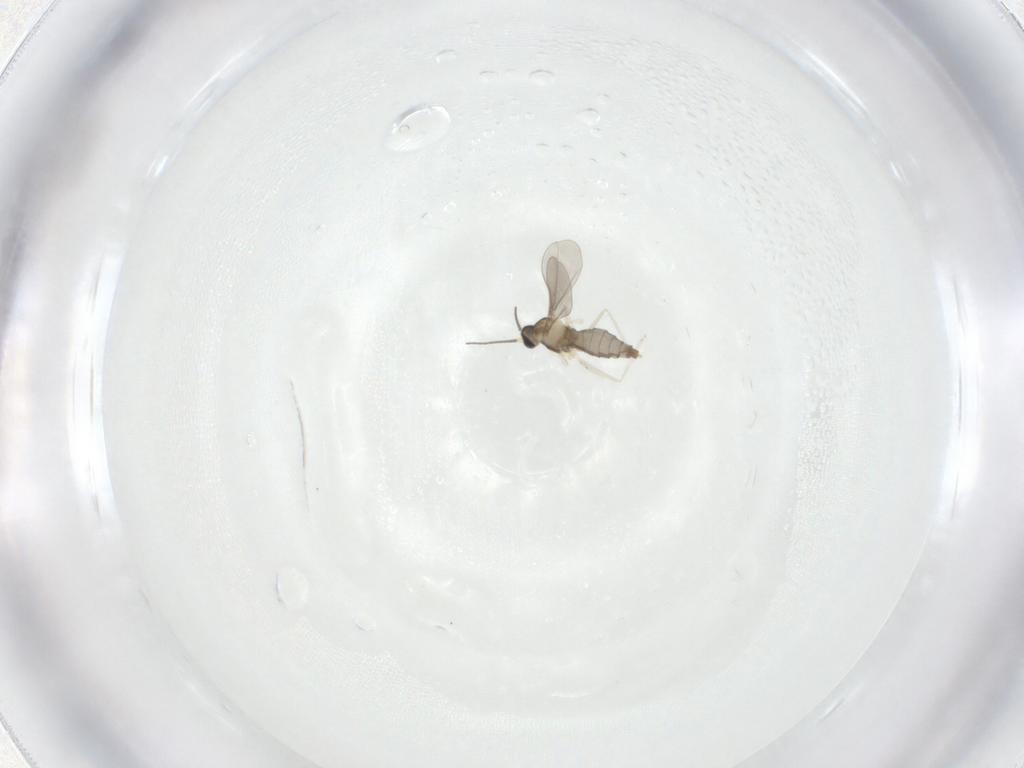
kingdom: Animalia
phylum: Arthropoda
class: Insecta
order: Diptera
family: Cecidomyiidae
